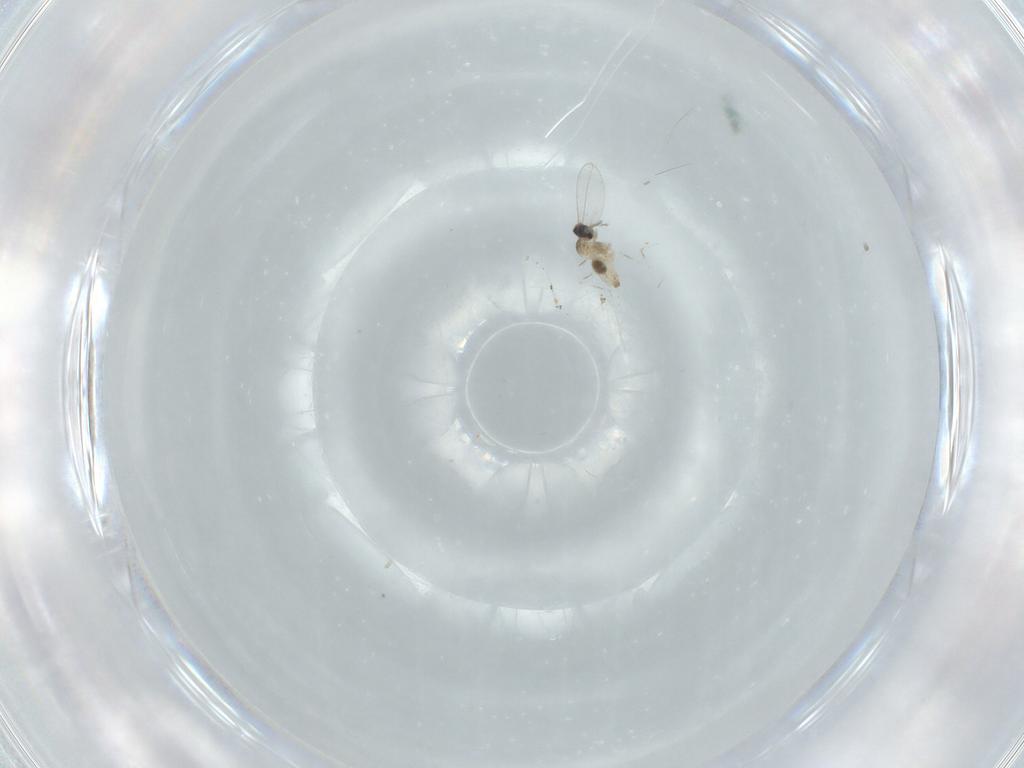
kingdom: Animalia
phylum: Arthropoda
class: Insecta
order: Diptera
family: Cecidomyiidae
